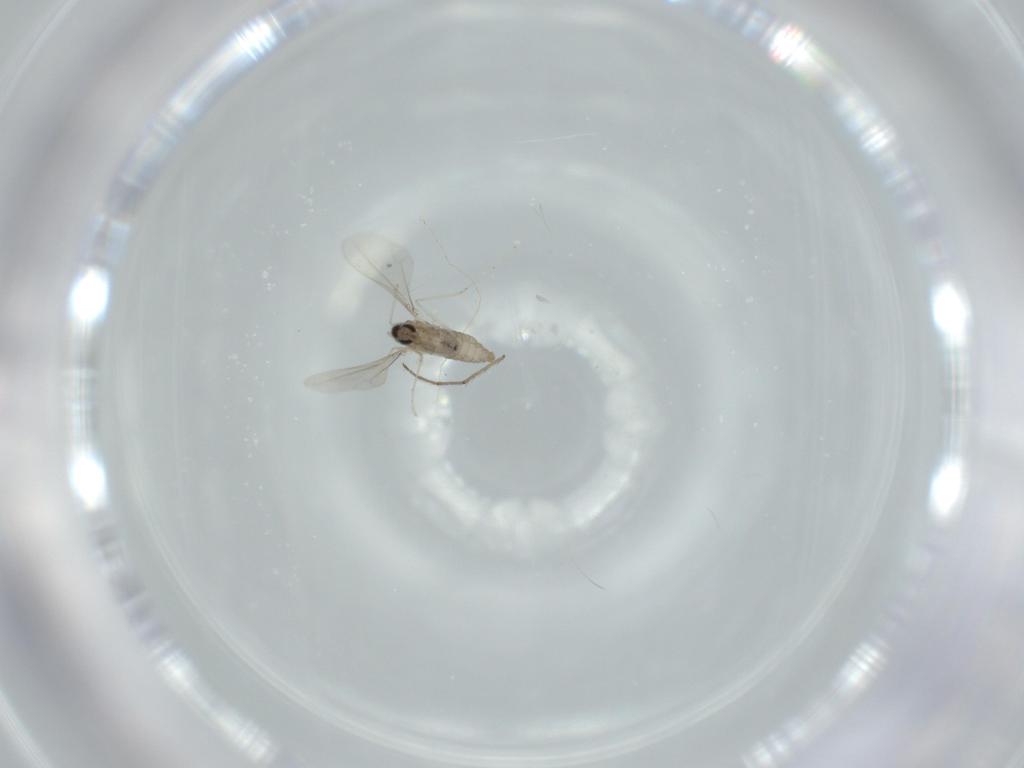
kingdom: Animalia
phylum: Arthropoda
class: Insecta
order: Diptera
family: Cecidomyiidae
